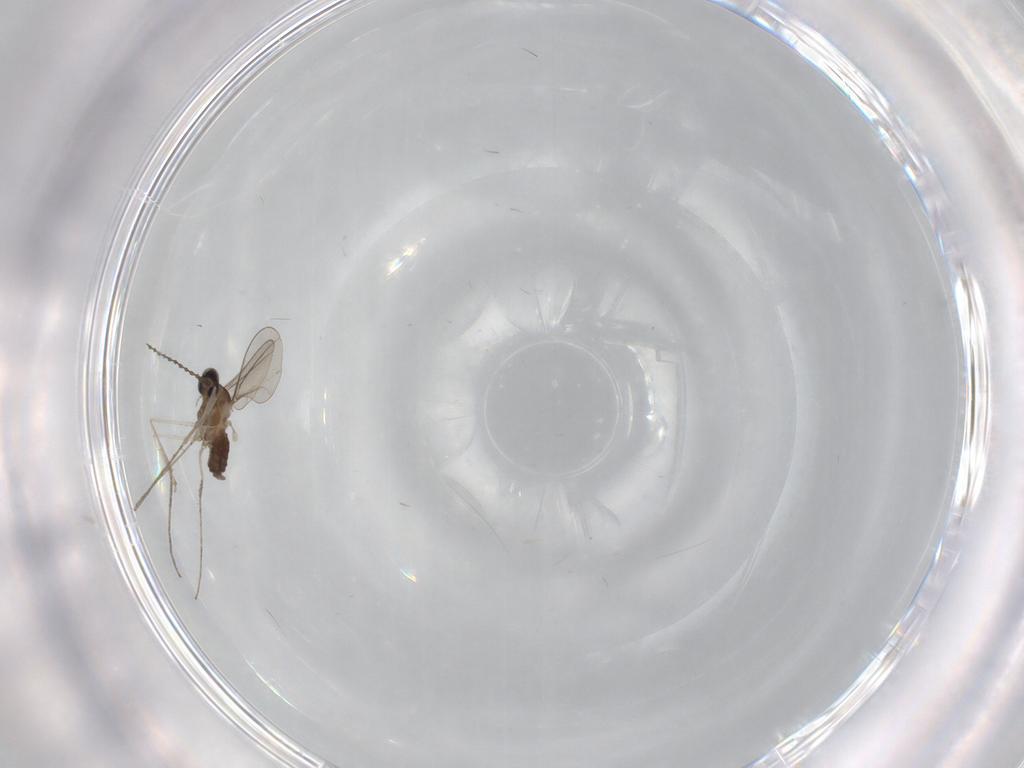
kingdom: Animalia
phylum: Arthropoda
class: Insecta
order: Diptera
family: Cecidomyiidae
